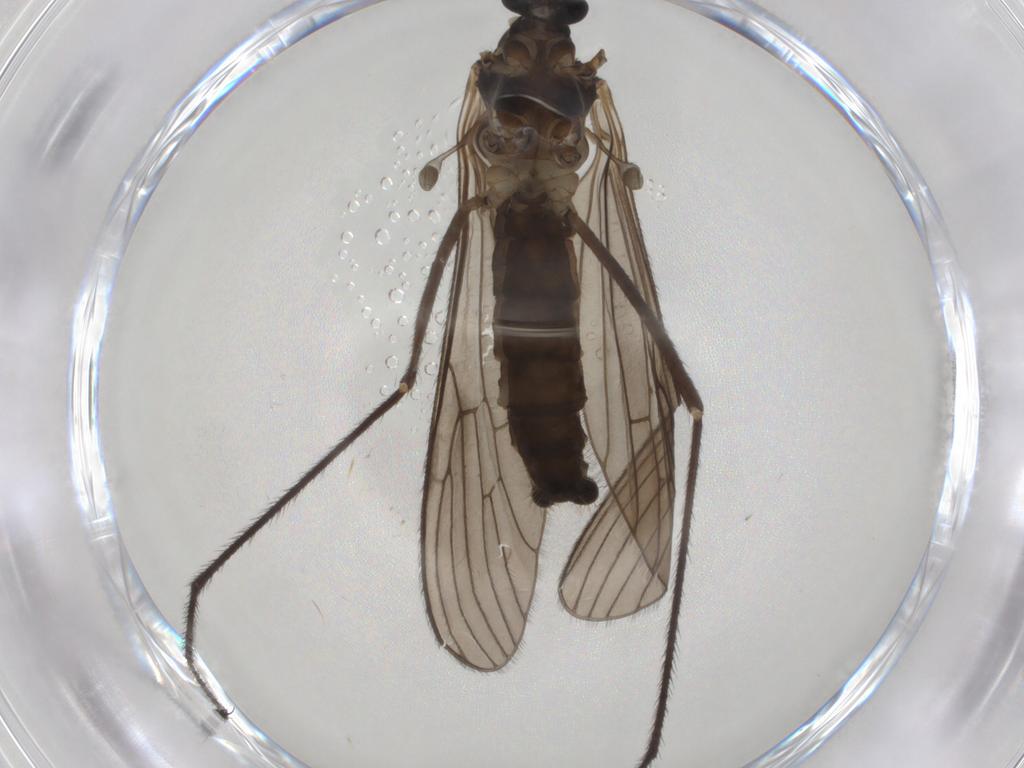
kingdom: Animalia
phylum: Arthropoda
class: Insecta
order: Diptera
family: Phoridae
